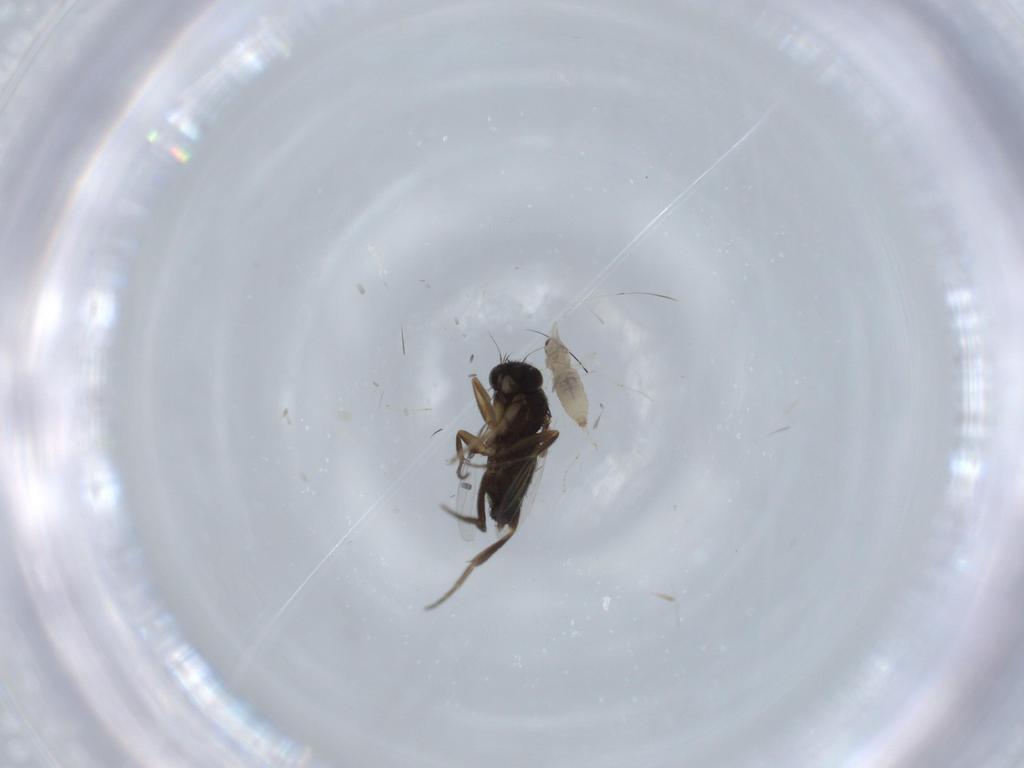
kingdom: Animalia
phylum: Arthropoda
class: Insecta
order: Diptera
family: Phoridae
